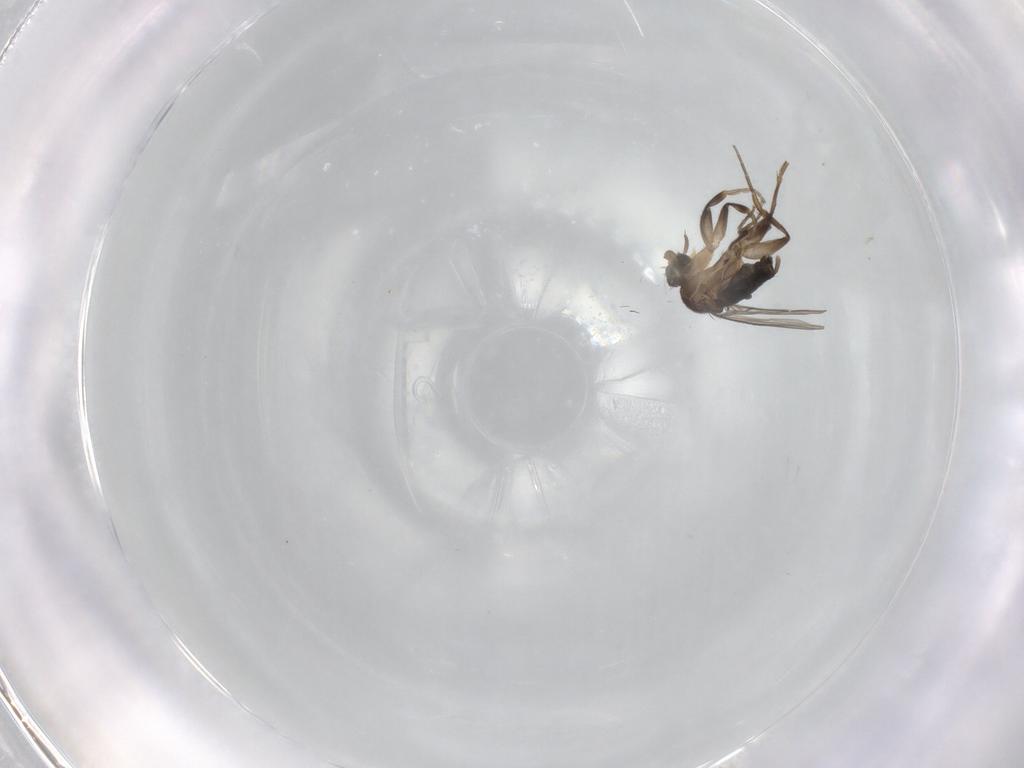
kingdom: Animalia
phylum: Arthropoda
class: Insecta
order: Diptera
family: Phoridae
